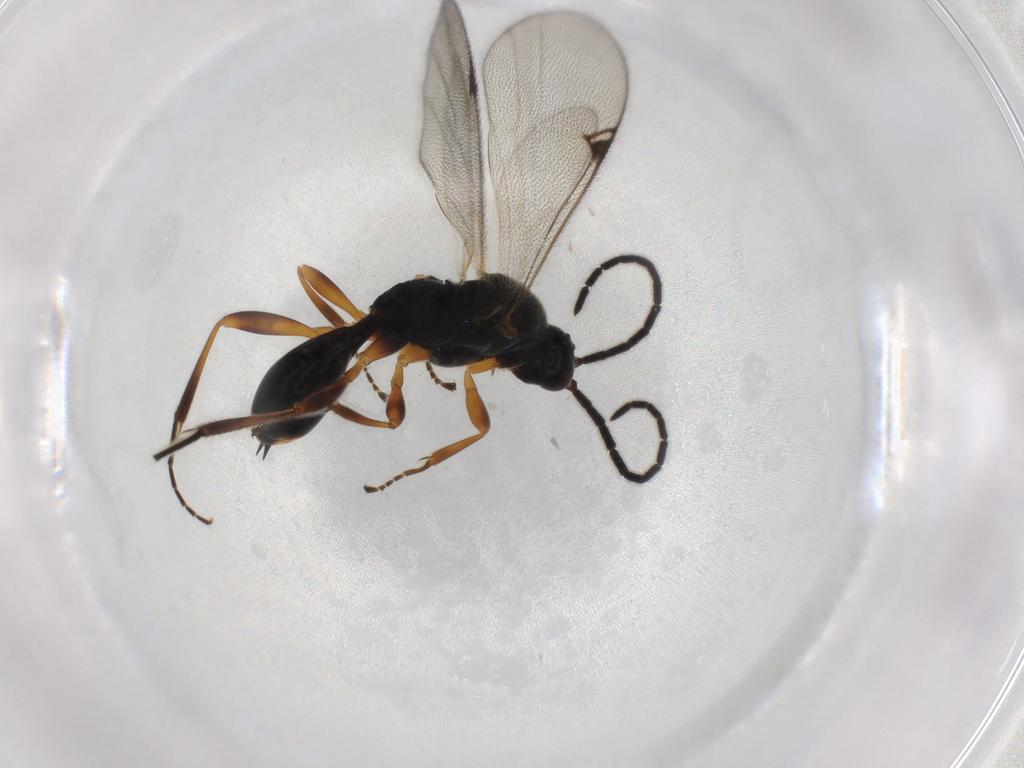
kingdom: Animalia
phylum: Arthropoda
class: Insecta
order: Hymenoptera
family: Proctotrupidae
